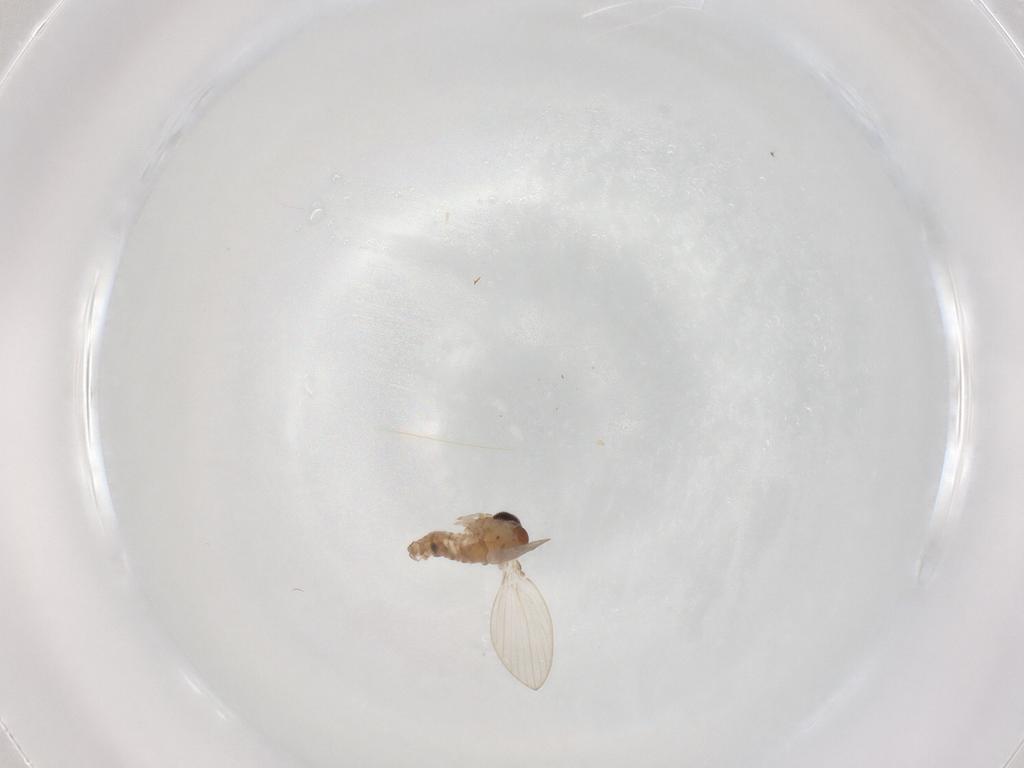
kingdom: Animalia
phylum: Arthropoda
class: Insecta
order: Diptera
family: Psychodidae
